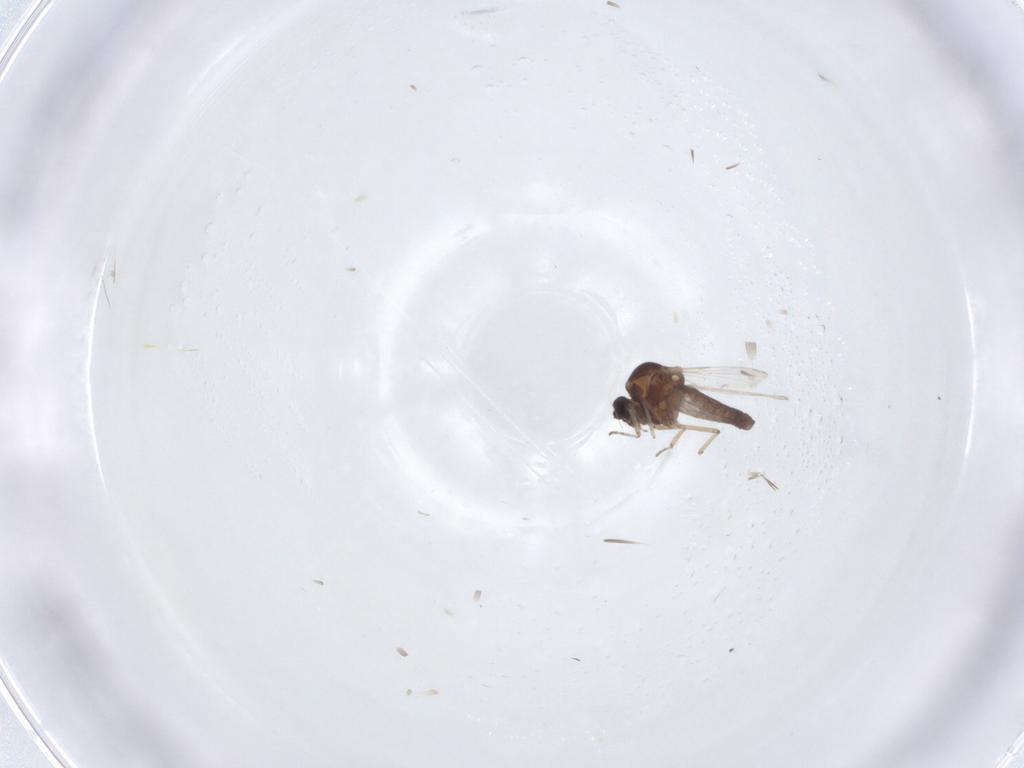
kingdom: Animalia
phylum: Arthropoda
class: Insecta
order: Diptera
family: Ceratopogonidae
